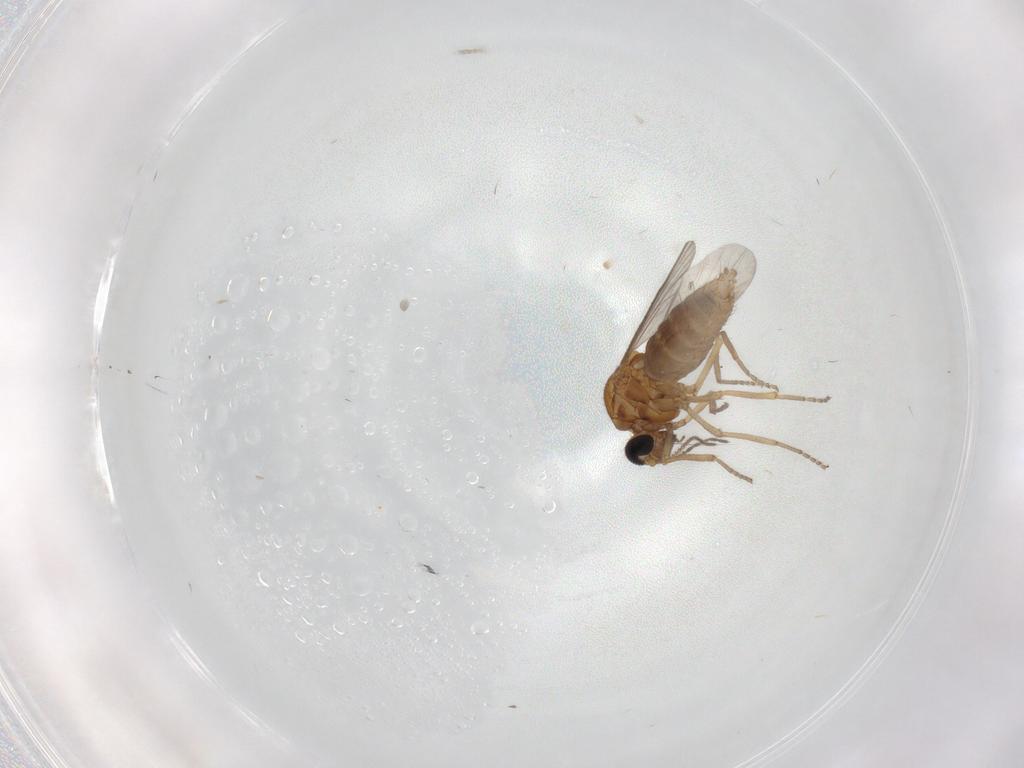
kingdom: Animalia
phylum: Arthropoda
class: Insecta
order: Diptera
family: Ceratopogonidae
